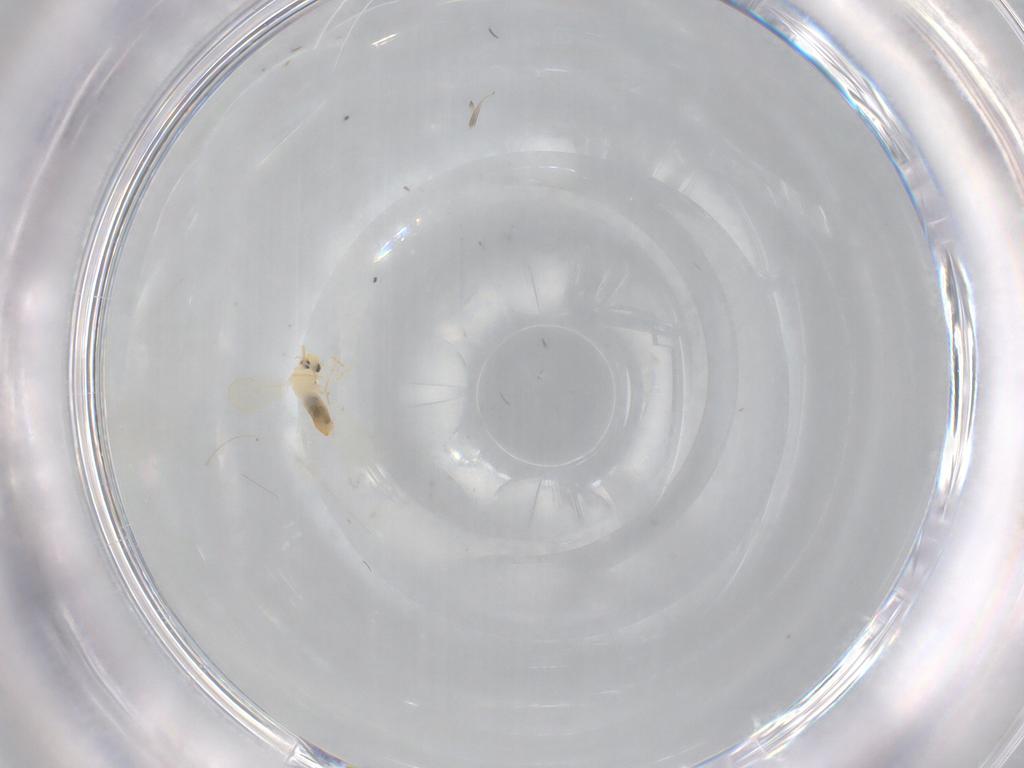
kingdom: Animalia
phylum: Arthropoda
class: Insecta
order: Hemiptera
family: Aleyrodidae
